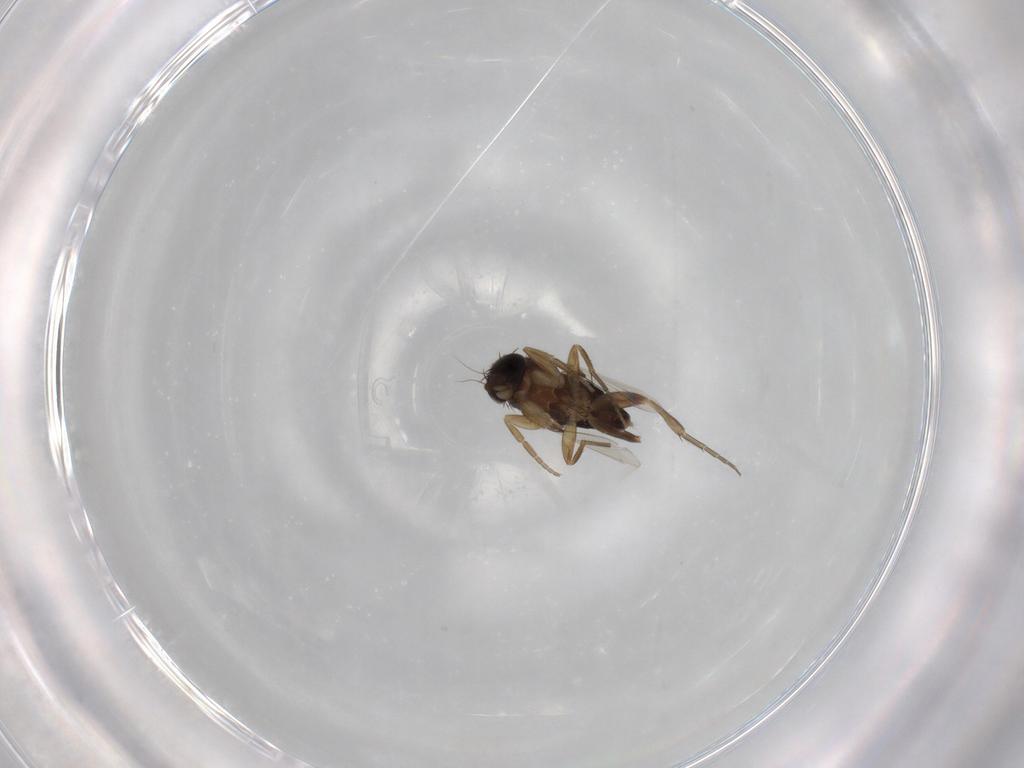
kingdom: Animalia
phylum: Arthropoda
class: Insecta
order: Diptera
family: Phoridae
